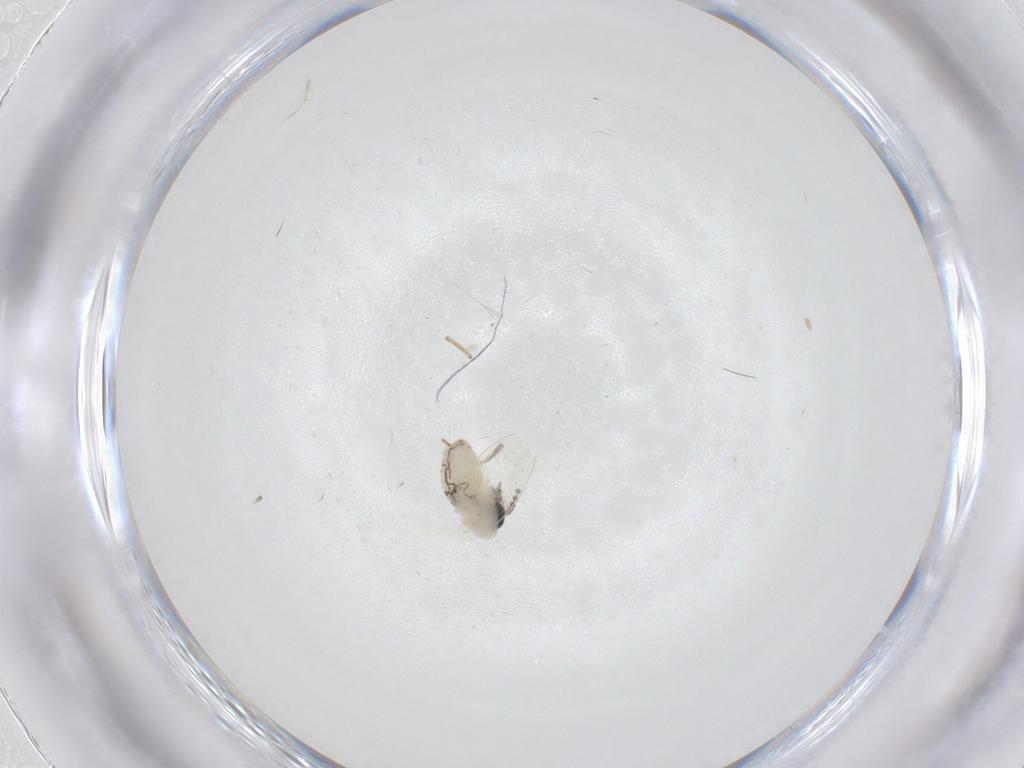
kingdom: Animalia
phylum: Arthropoda
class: Insecta
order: Diptera
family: Psychodidae
